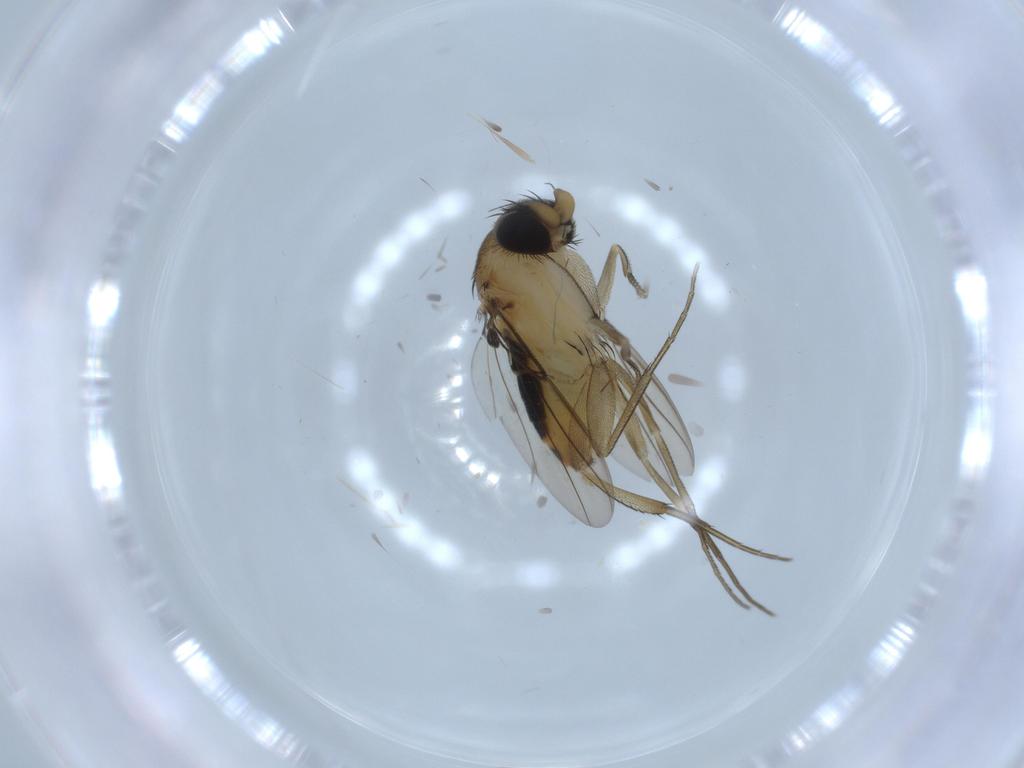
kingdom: Animalia
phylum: Arthropoda
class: Insecta
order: Diptera
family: Phoridae
